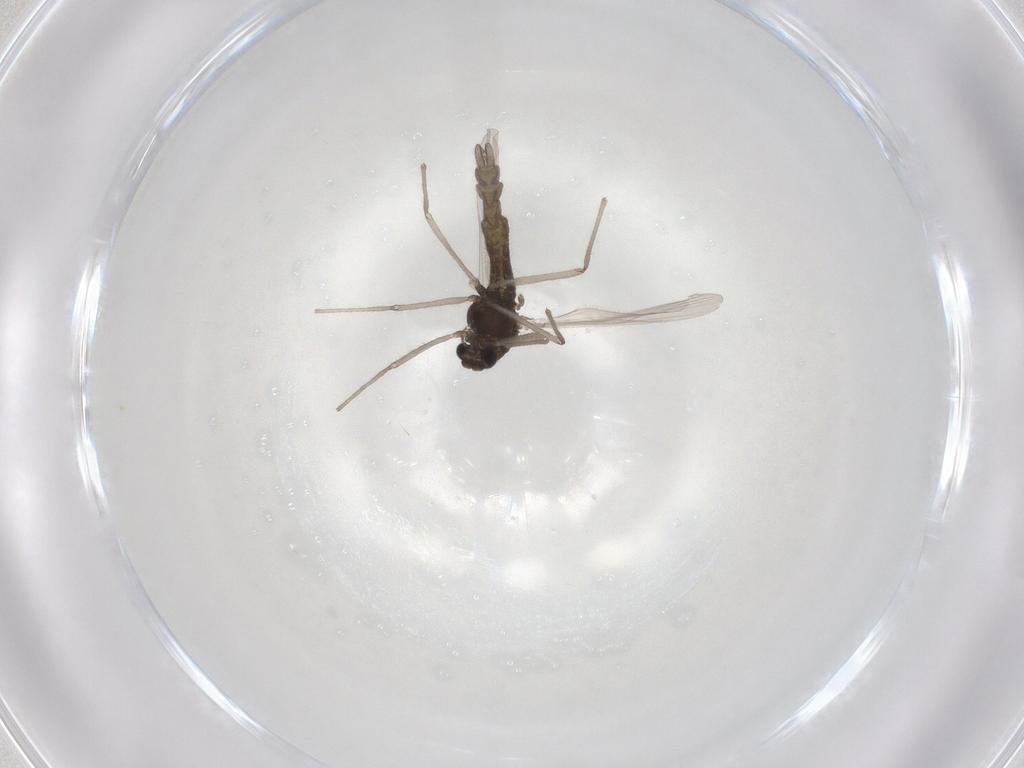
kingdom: Animalia
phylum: Arthropoda
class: Insecta
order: Diptera
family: Chironomidae
